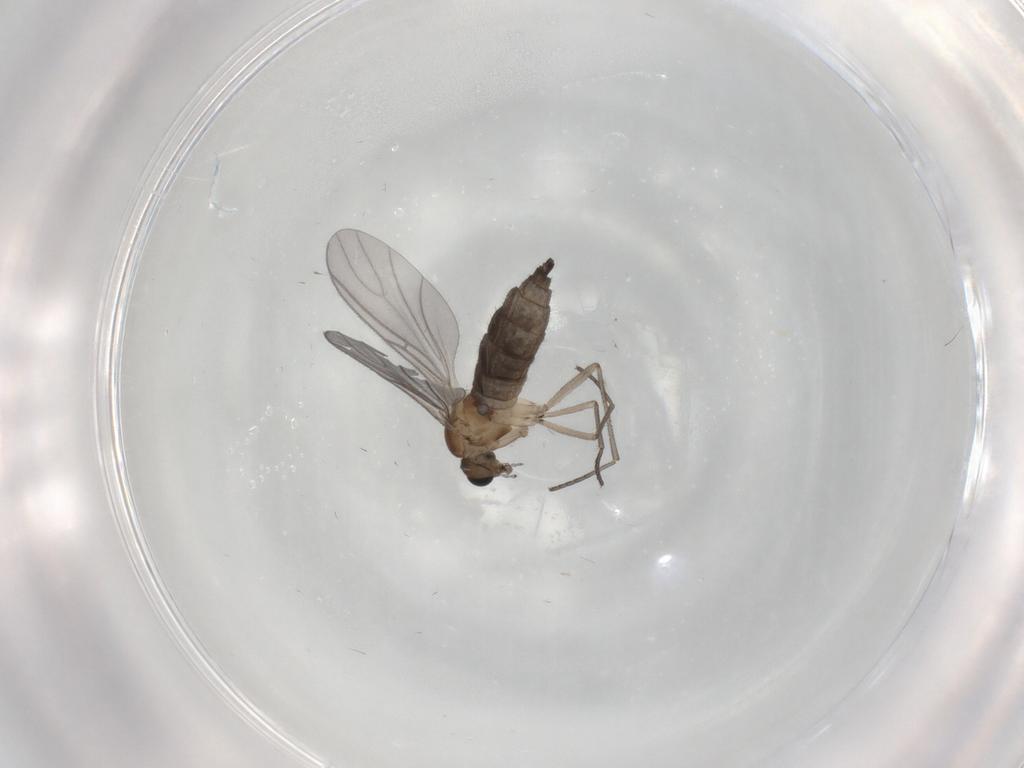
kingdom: Animalia
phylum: Arthropoda
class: Insecta
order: Diptera
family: Sciaridae
